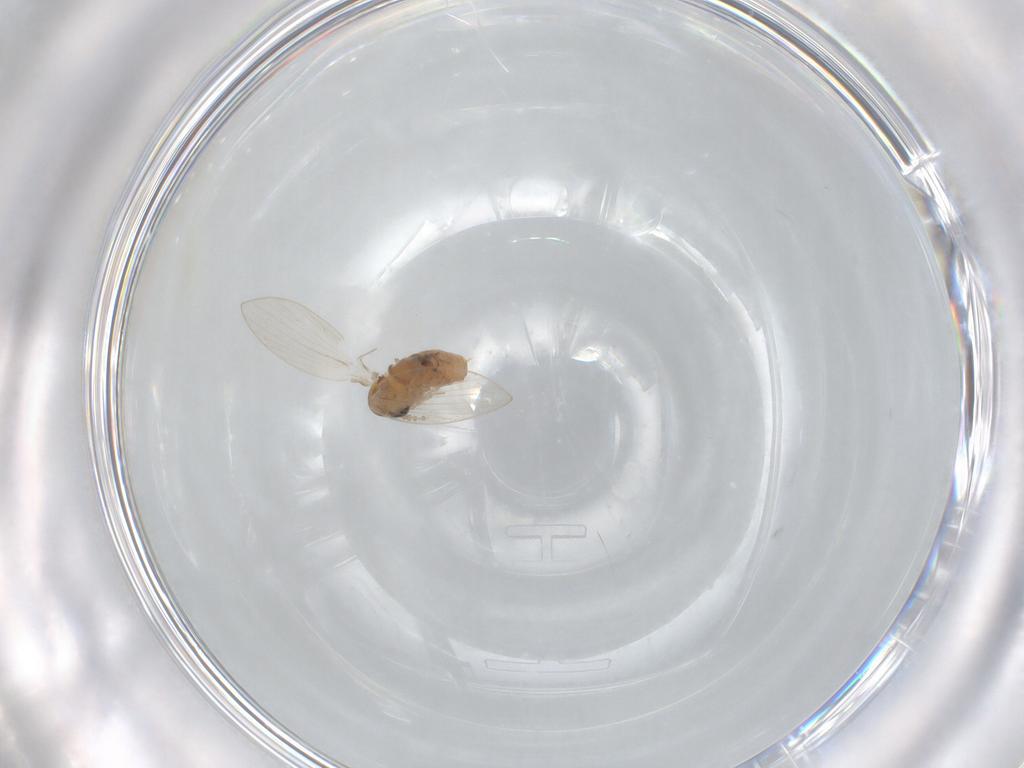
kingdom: Animalia
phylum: Arthropoda
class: Insecta
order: Diptera
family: Psychodidae
